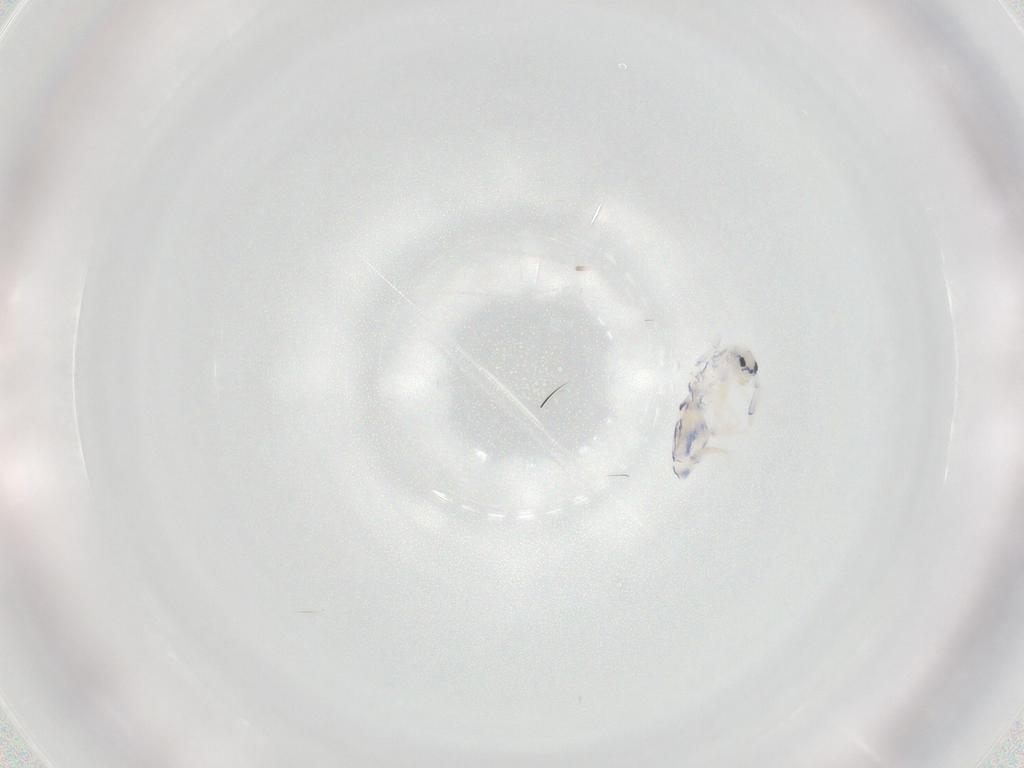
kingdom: Animalia
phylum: Arthropoda
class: Collembola
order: Entomobryomorpha
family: Entomobryidae
